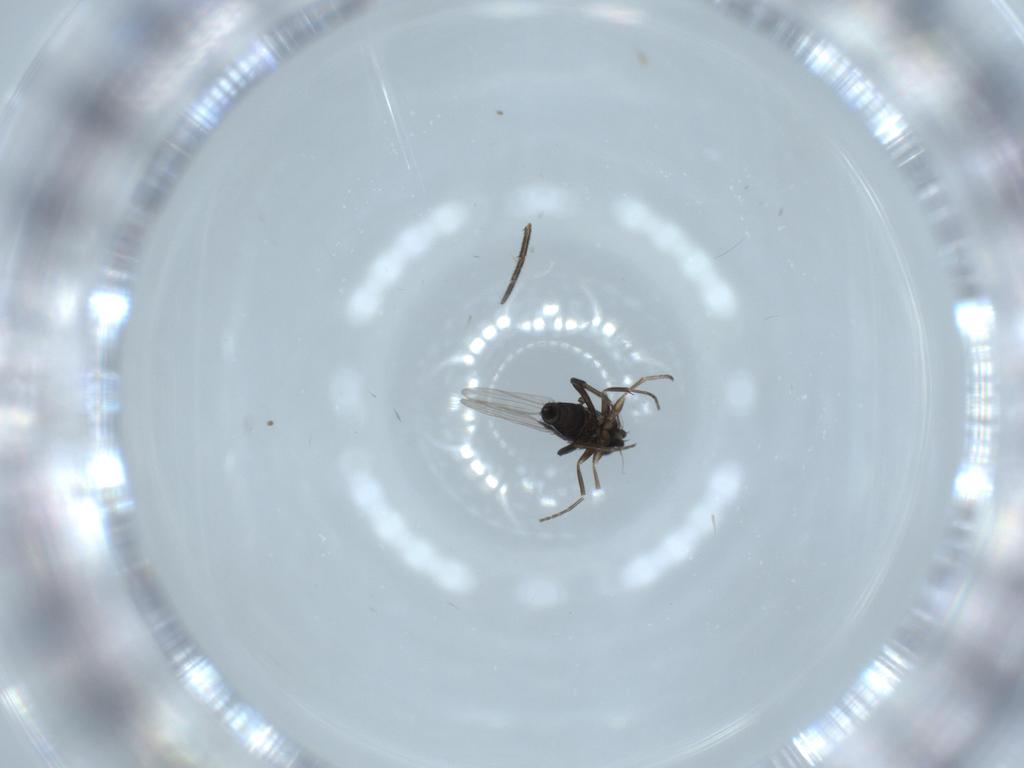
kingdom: Animalia
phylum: Arthropoda
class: Insecta
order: Diptera
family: Phoridae
